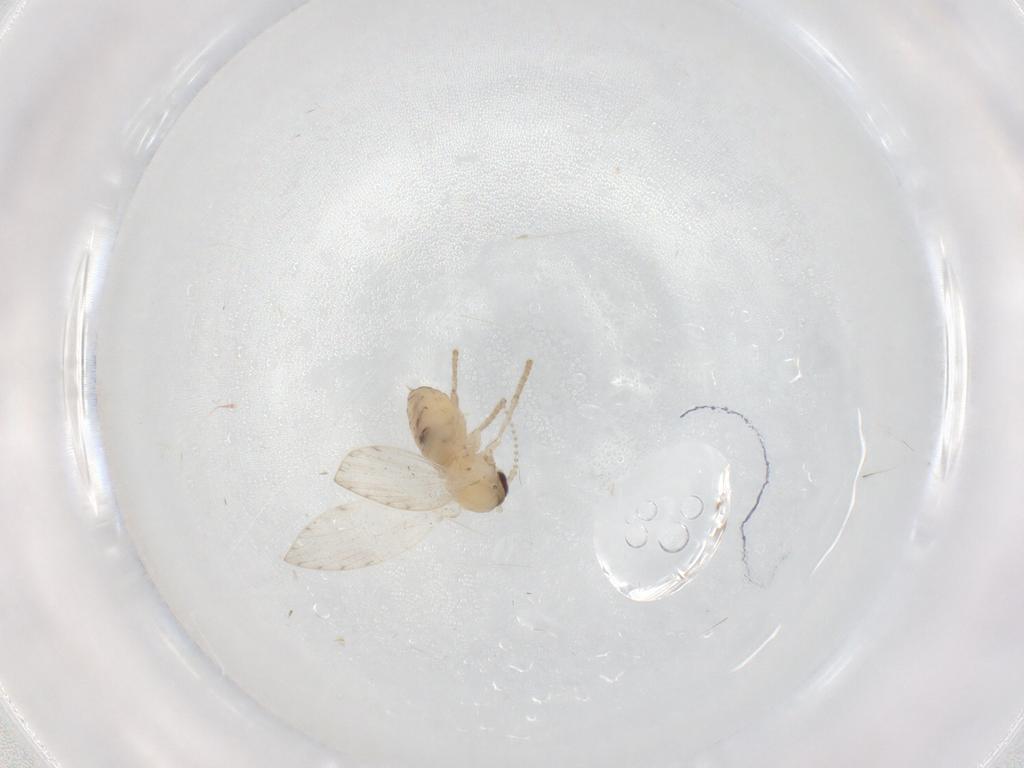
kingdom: Animalia
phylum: Arthropoda
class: Insecta
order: Diptera
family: Psychodidae
